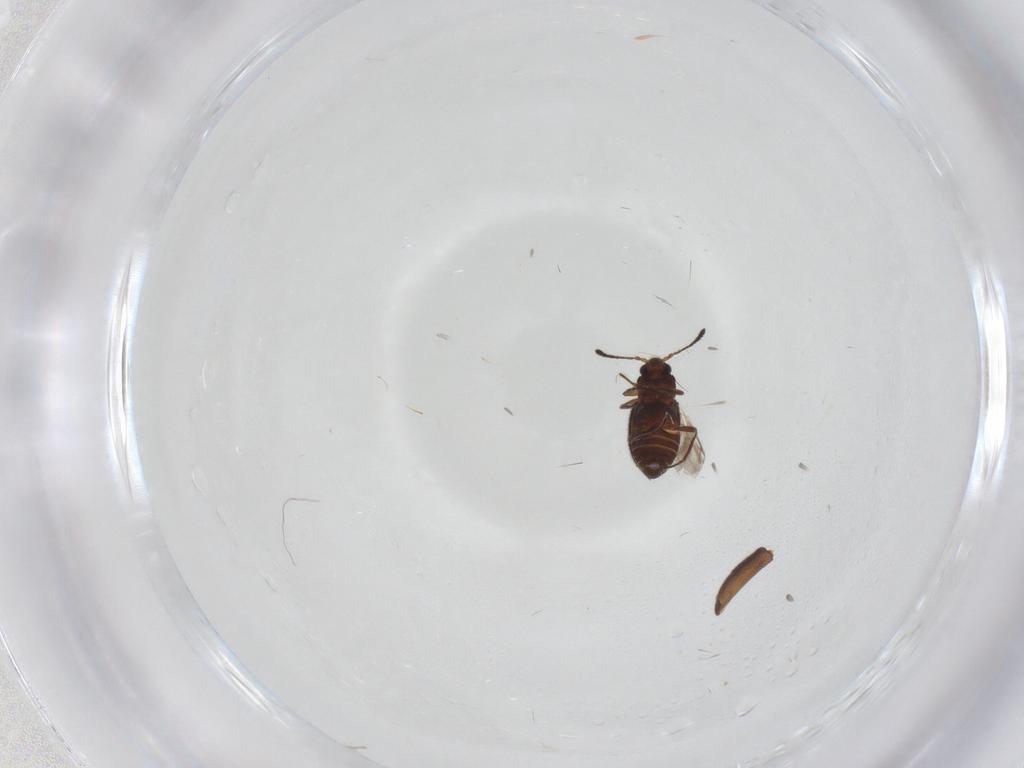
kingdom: Animalia
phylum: Arthropoda
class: Insecta
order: Coleoptera
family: Cryptophagidae
